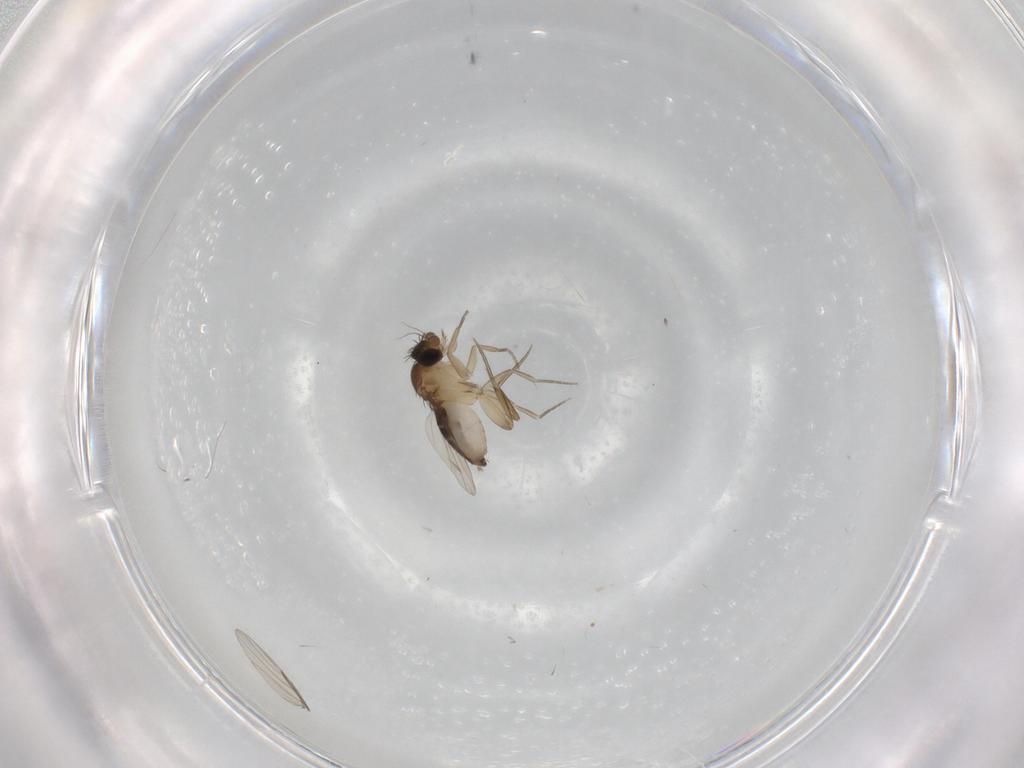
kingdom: Animalia
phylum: Arthropoda
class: Insecta
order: Diptera
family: Phoridae
